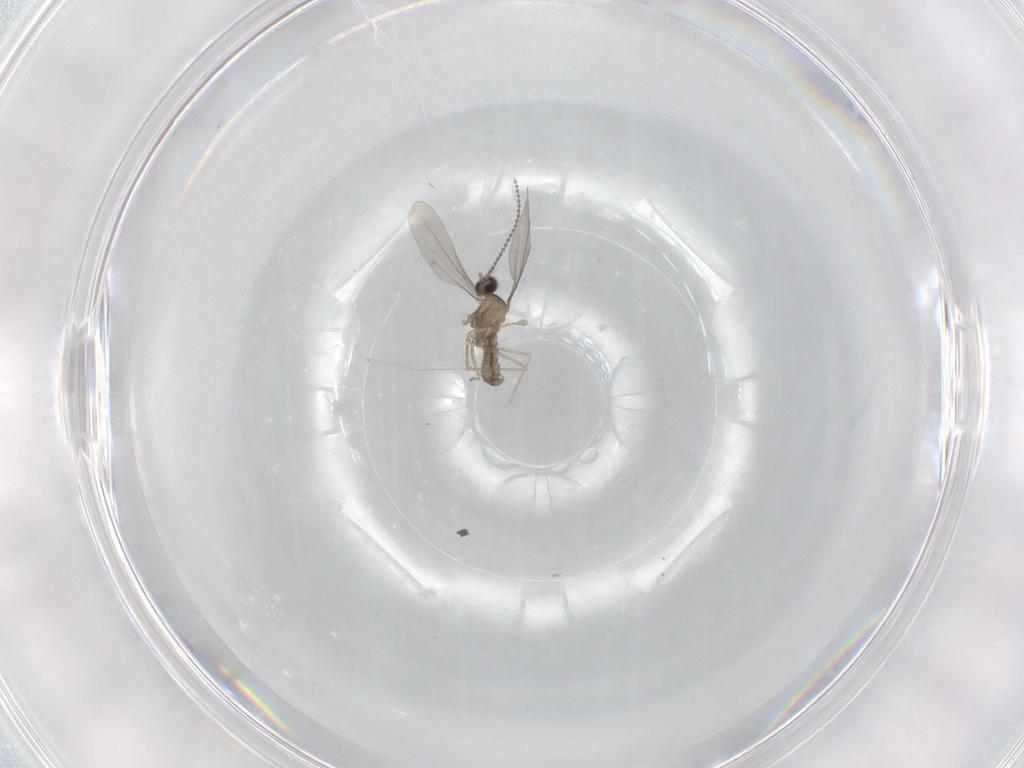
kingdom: Animalia
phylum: Arthropoda
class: Insecta
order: Diptera
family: Cecidomyiidae
